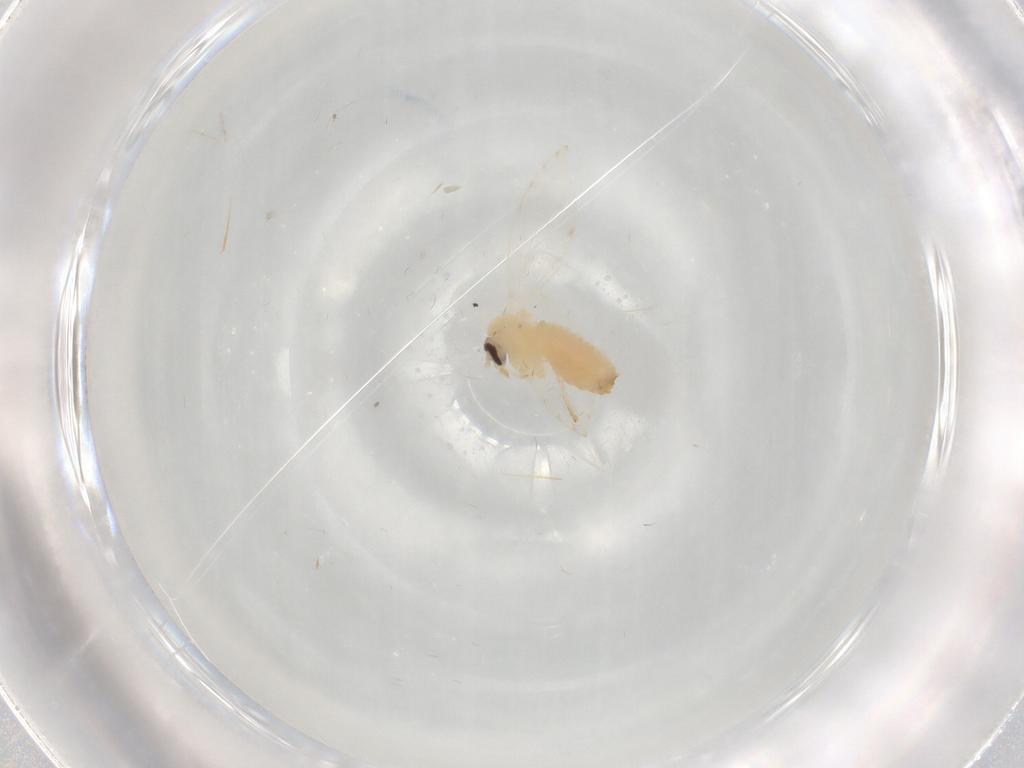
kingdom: Animalia
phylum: Arthropoda
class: Insecta
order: Diptera
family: Psychodidae
